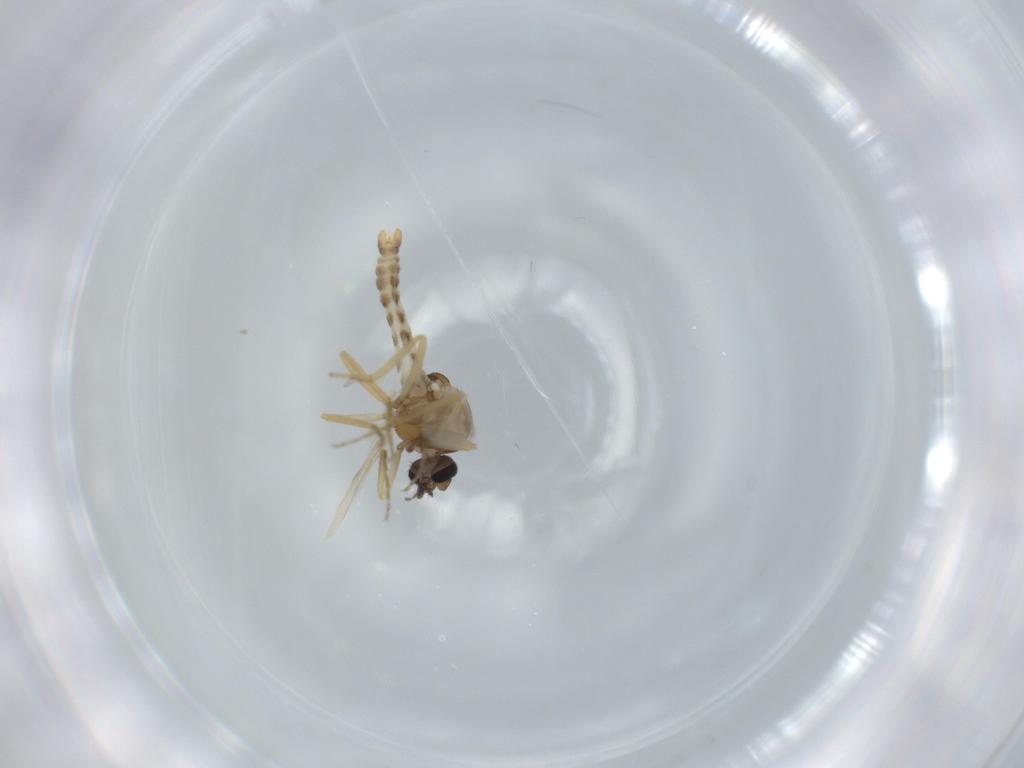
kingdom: Animalia
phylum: Arthropoda
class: Insecta
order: Diptera
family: Ceratopogonidae
